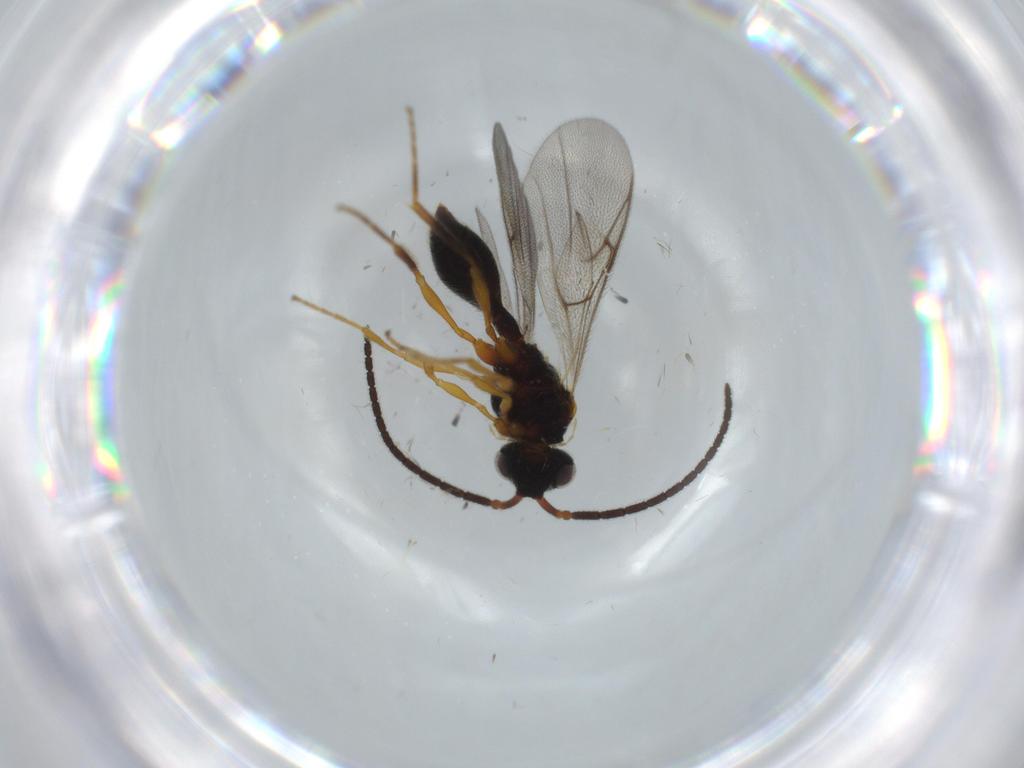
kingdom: Animalia
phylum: Arthropoda
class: Insecta
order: Hymenoptera
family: Diapriidae
